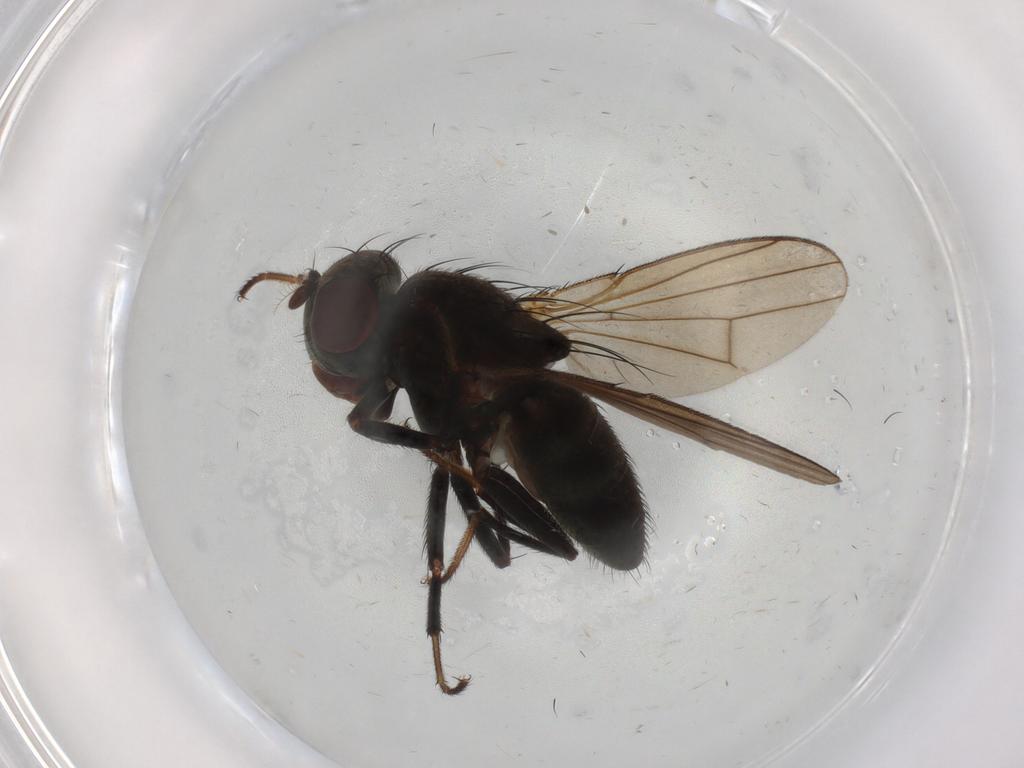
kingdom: Animalia
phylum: Arthropoda
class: Insecta
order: Diptera
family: Ephydridae
